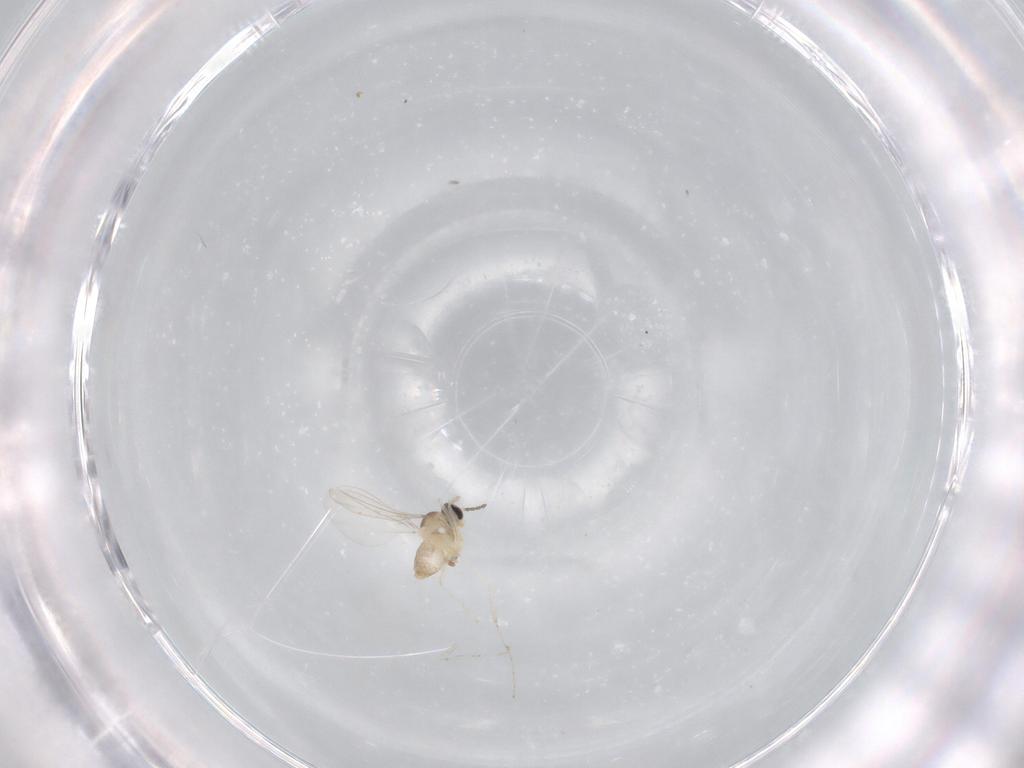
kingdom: Animalia
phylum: Arthropoda
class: Insecta
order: Diptera
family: Cecidomyiidae
